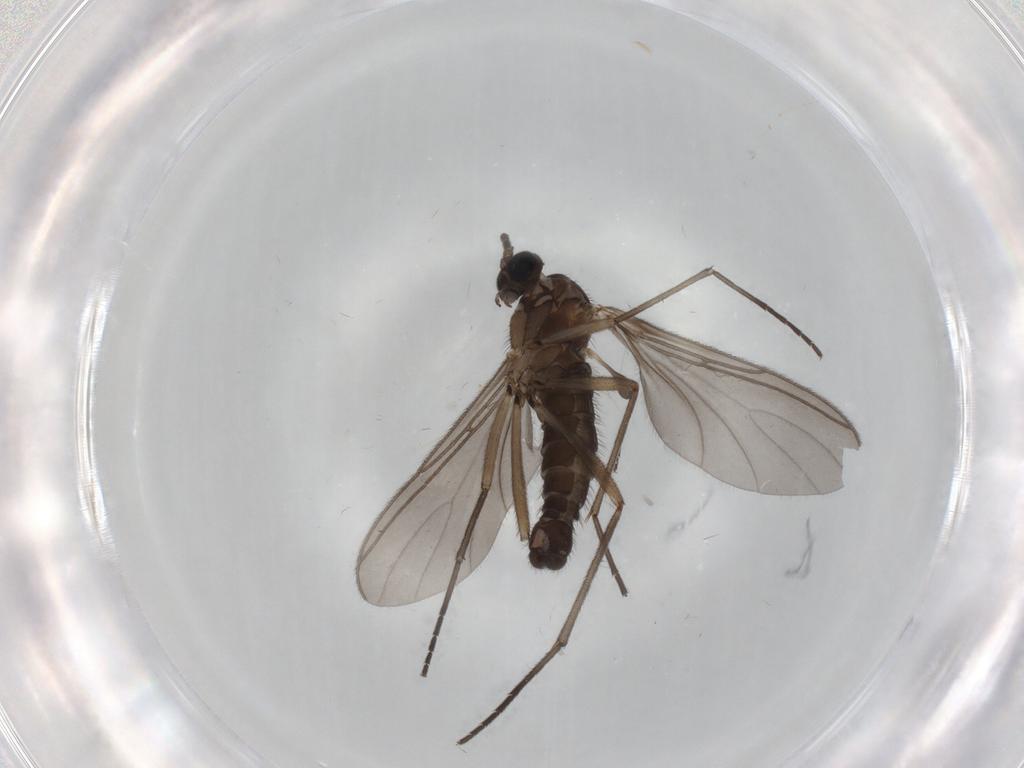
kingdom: Animalia
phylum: Arthropoda
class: Insecta
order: Diptera
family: Sciaridae
